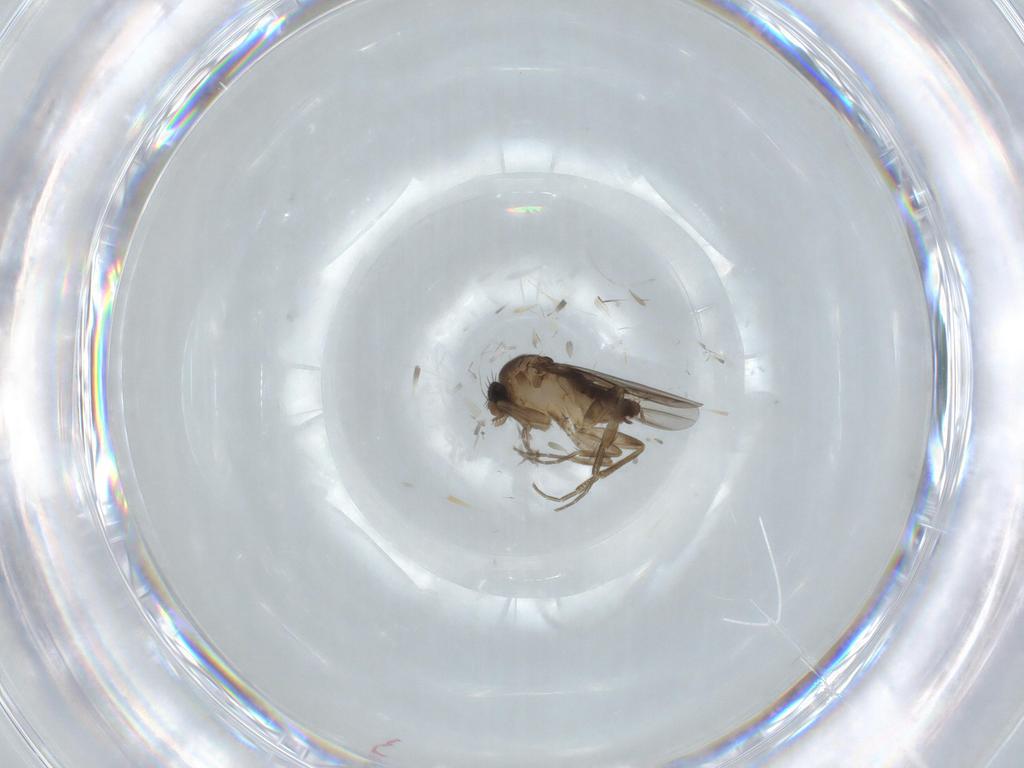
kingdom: Animalia
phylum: Arthropoda
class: Insecta
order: Diptera
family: Phoridae
